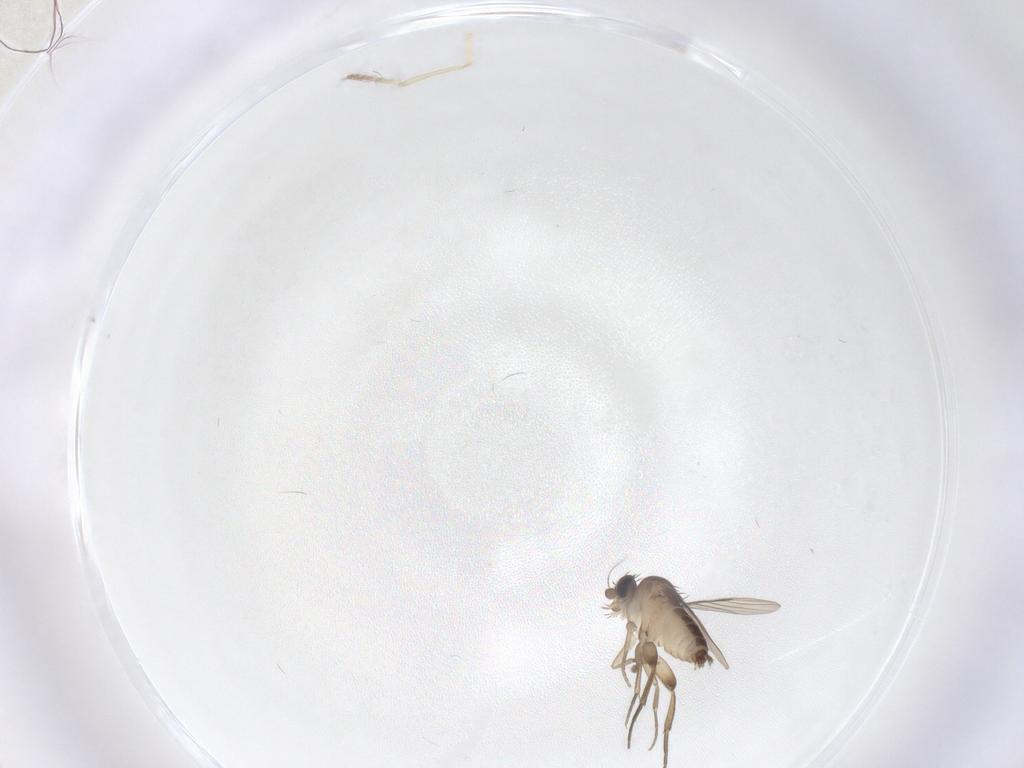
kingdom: Animalia
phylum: Arthropoda
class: Insecta
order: Diptera
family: Psychodidae
